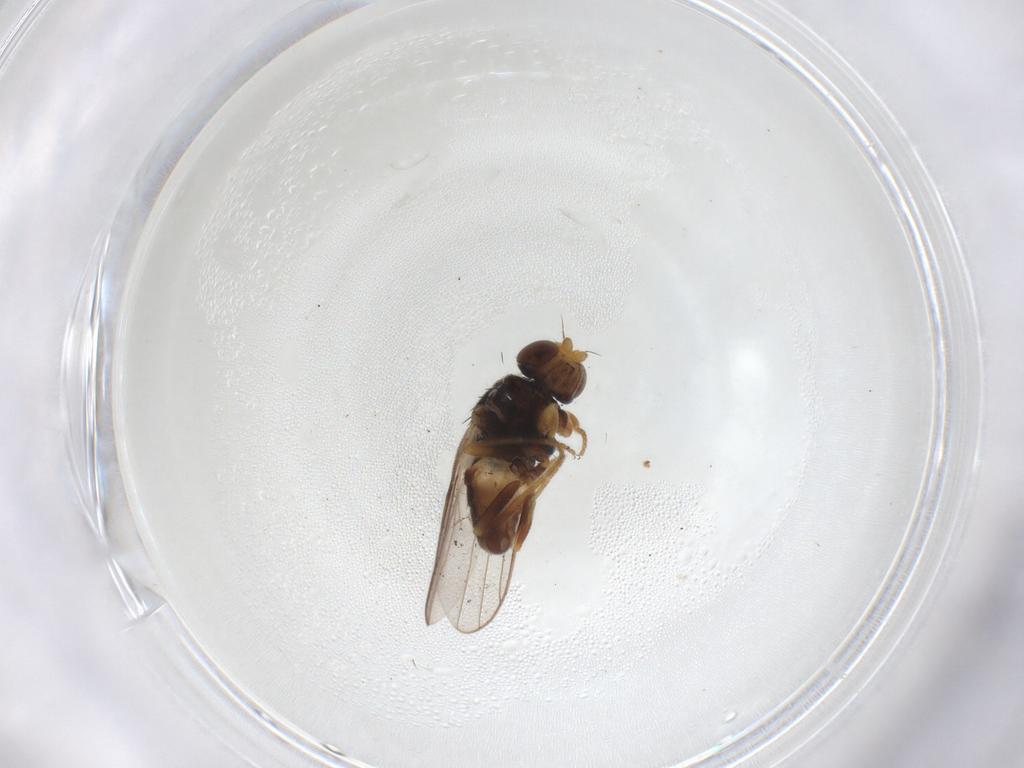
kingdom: Animalia
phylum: Arthropoda
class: Insecta
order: Diptera
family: Chloropidae
